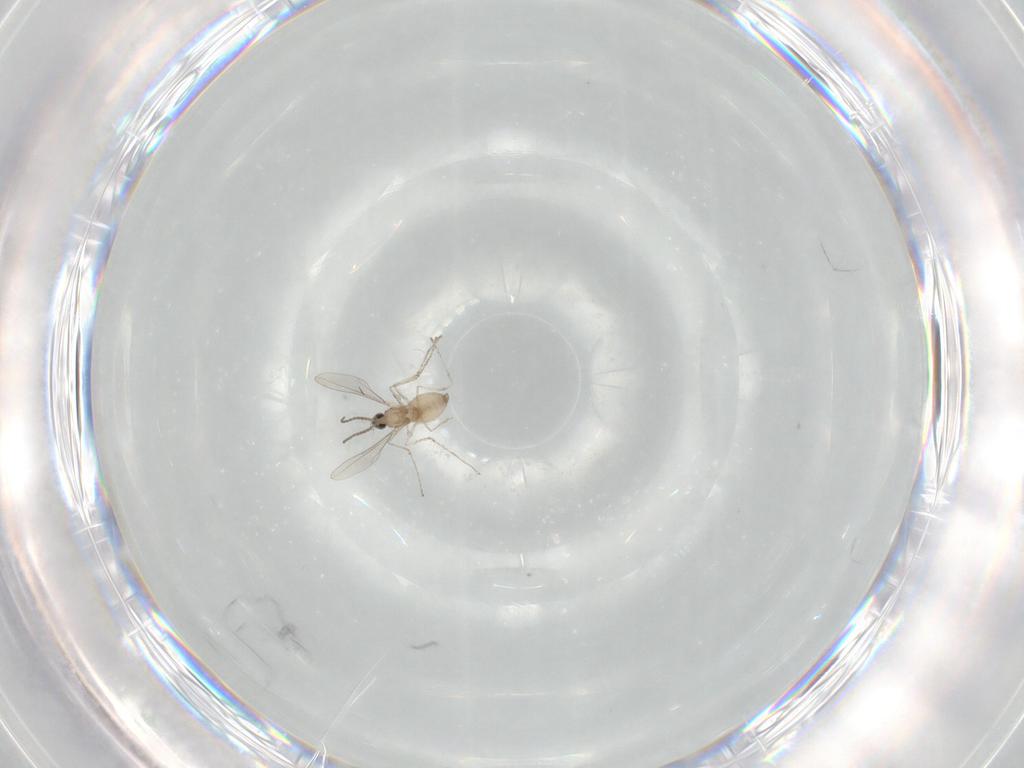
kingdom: Animalia
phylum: Arthropoda
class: Insecta
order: Diptera
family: Cecidomyiidae
